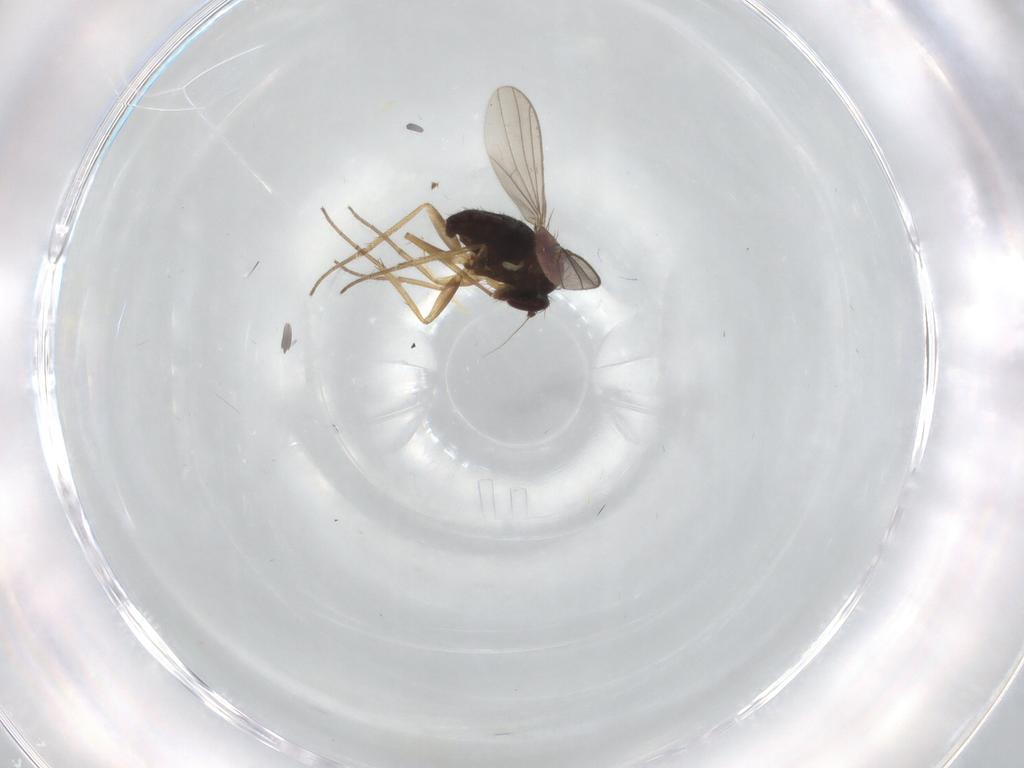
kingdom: Animalia
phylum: Arthropoda
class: Insecta
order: Diptera
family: Dolichopodidae
